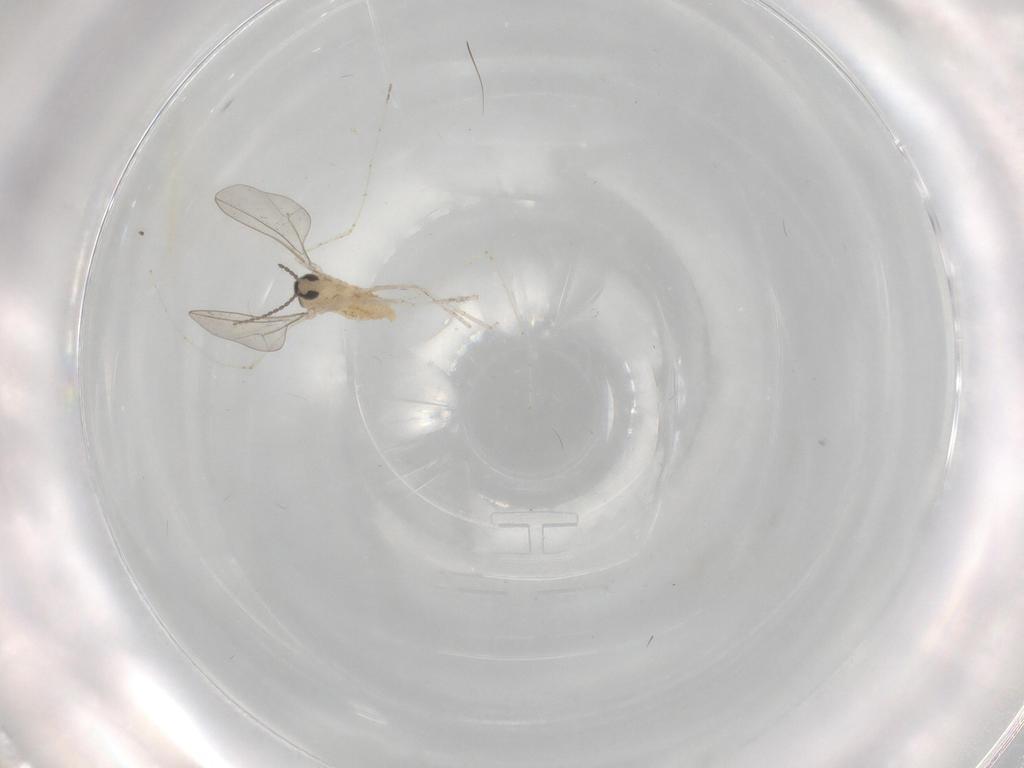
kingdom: Animalia
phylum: Arthropoda
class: Insecta
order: Diptera
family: Cecidomyiidae
